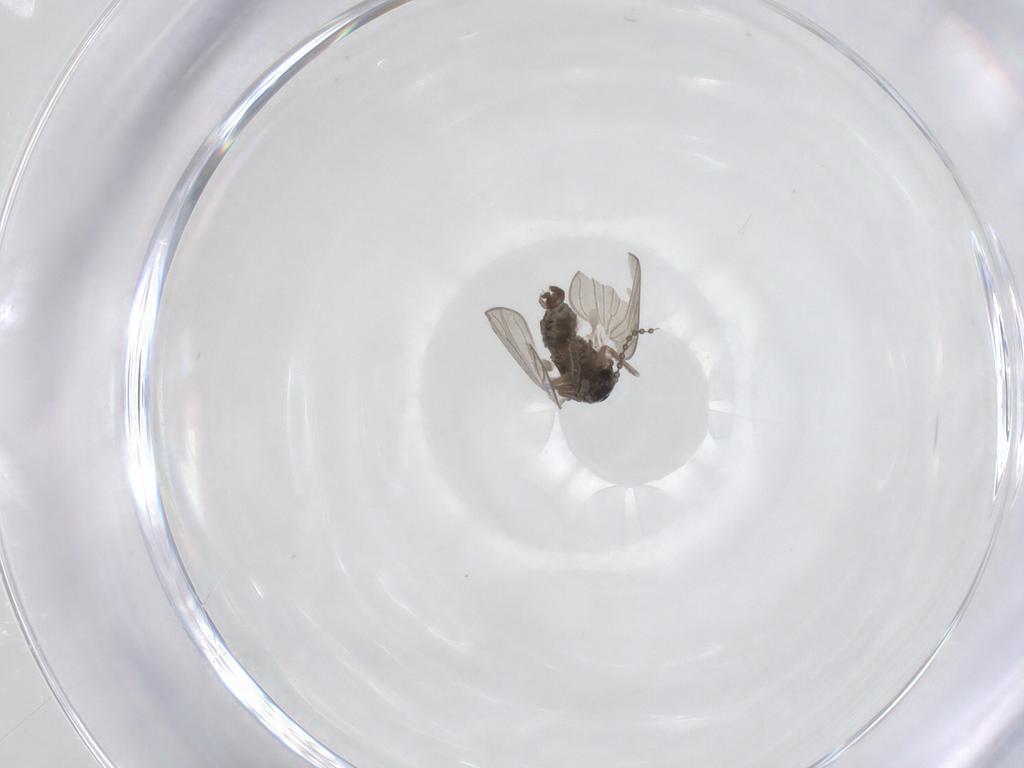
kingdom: Animalia
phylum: Arthropoda
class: Insecta
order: Diptera
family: Psychodidae
